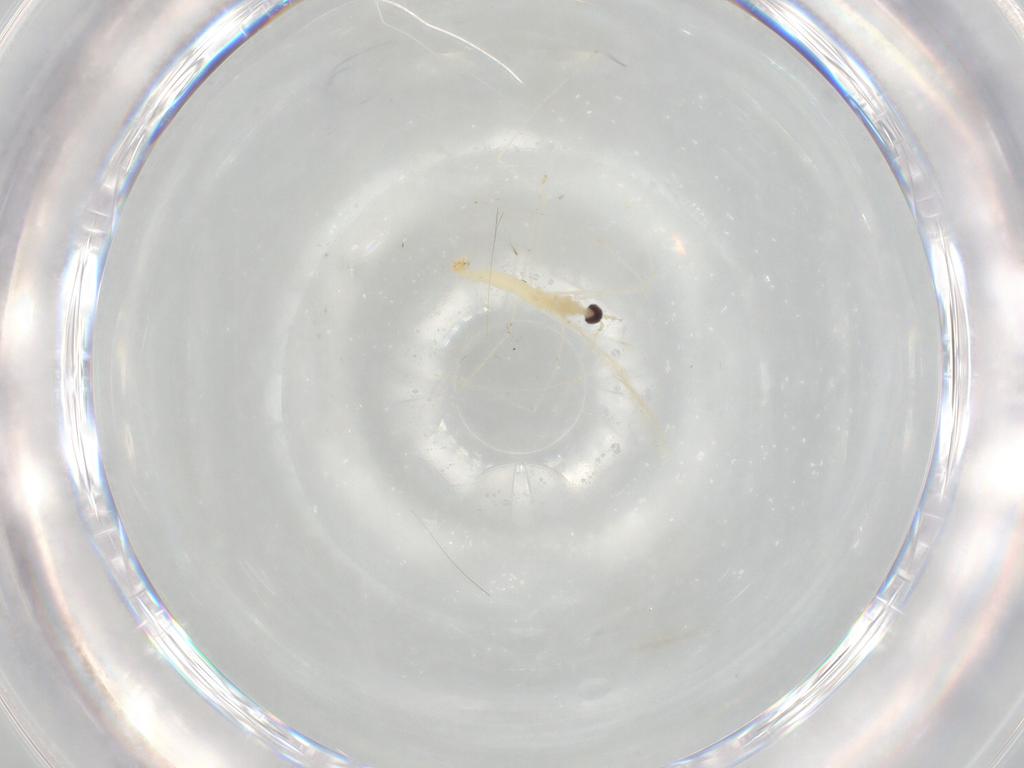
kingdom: Animalia
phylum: Arthropoda
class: Insecta
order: Diptera
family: Cecidomyiidae
